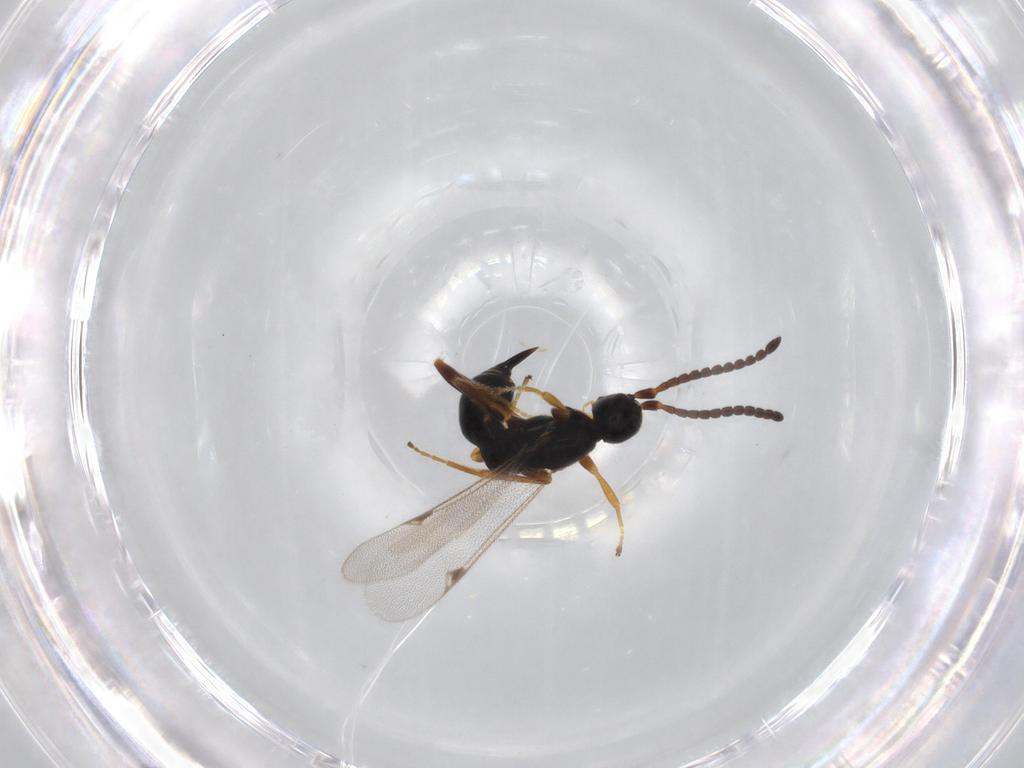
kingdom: Animalia
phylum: Arthropoda
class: Insecta
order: Hymenoptera
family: Proctotrupidae
